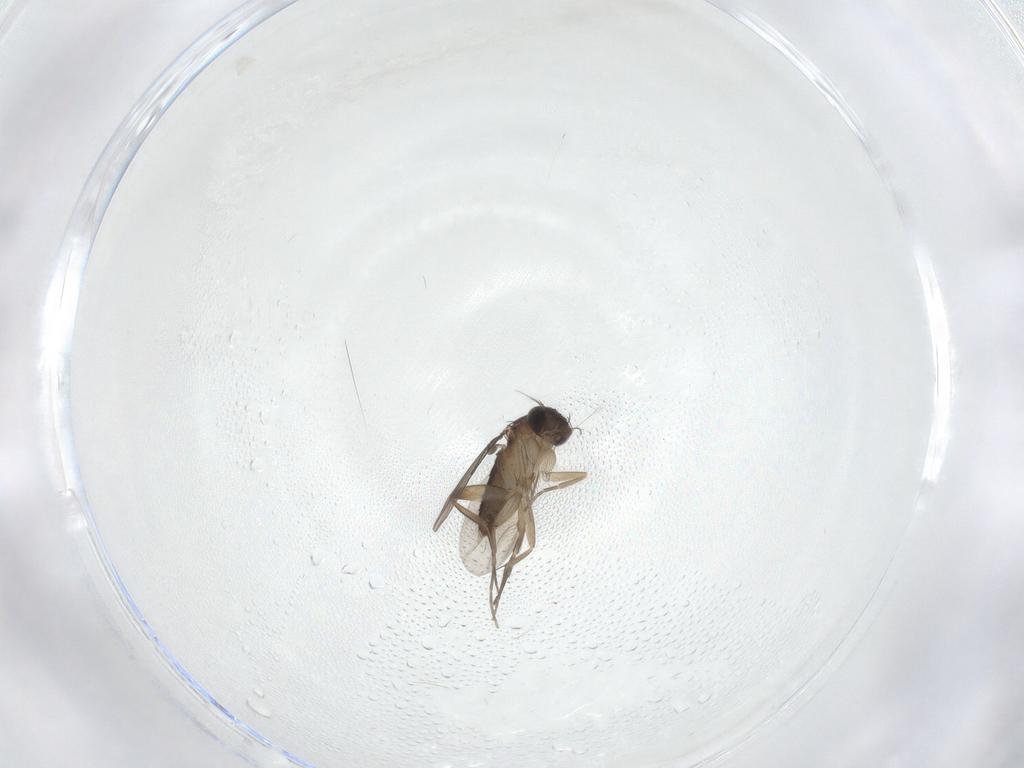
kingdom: Animalia
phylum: Arthropoda
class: Insecta
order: Diptera
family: Phoridae
